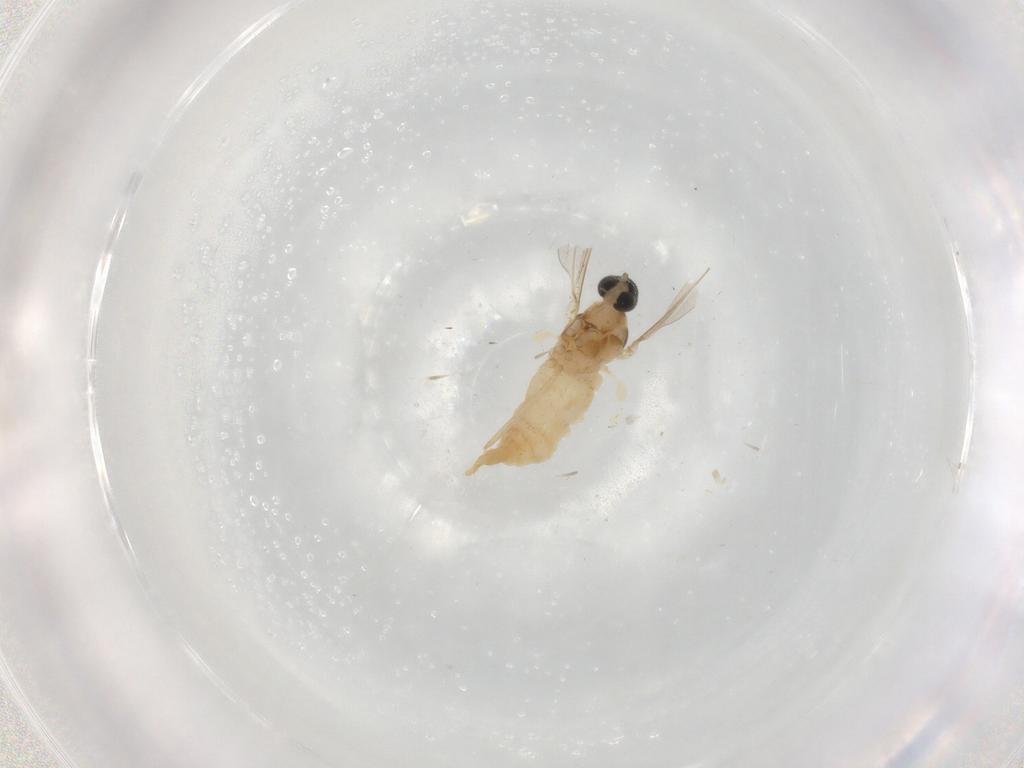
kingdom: Animalia
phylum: Arthropoda
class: Insecta
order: Diptera
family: Cecidomyiidae
